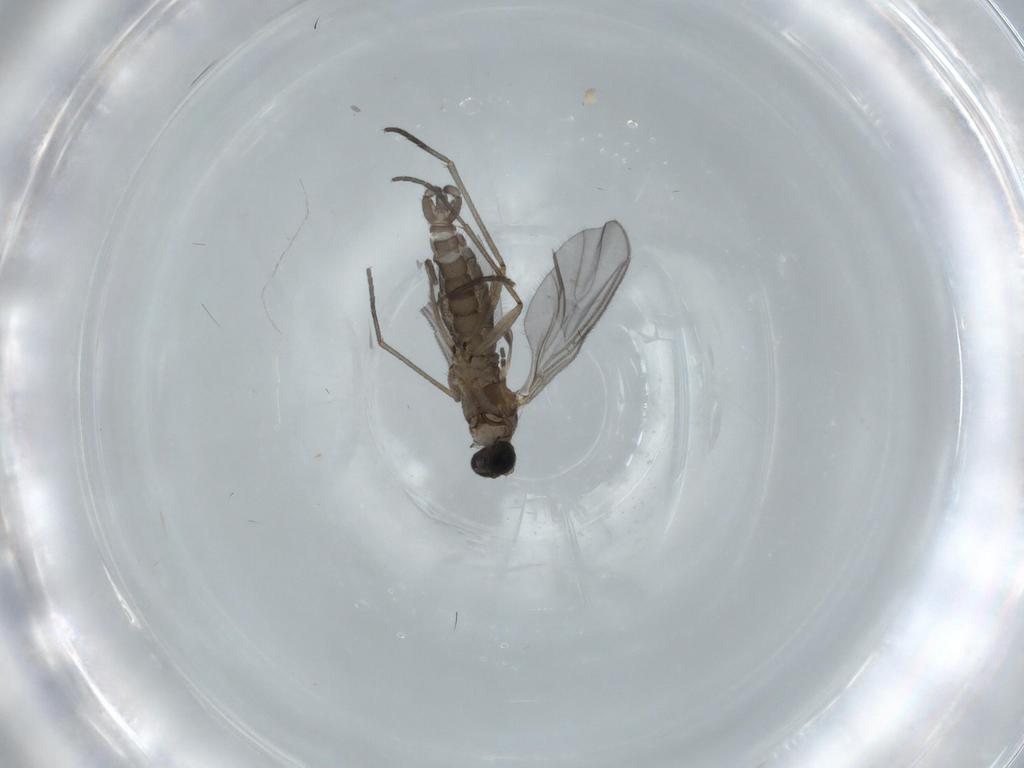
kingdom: Animalia
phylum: Arthropoda
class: Insecta
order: Diptera
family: Sciaridae
